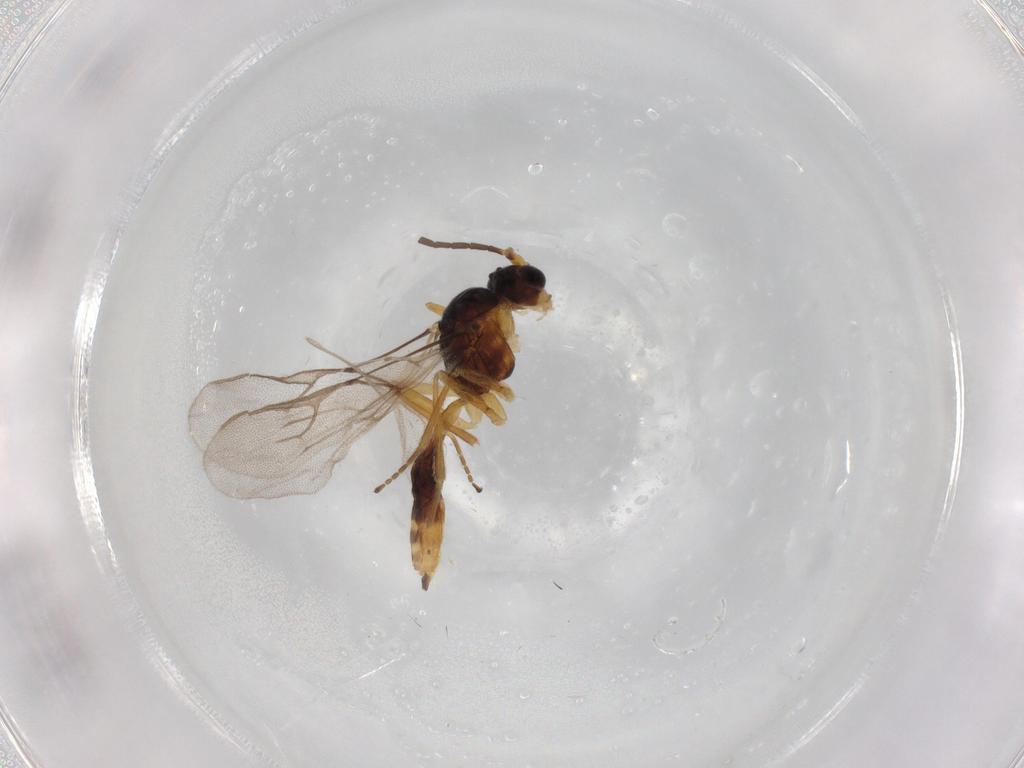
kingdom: Animalia
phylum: Arthropoda
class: Insecta
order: Hymenoptera
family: Braconidae
